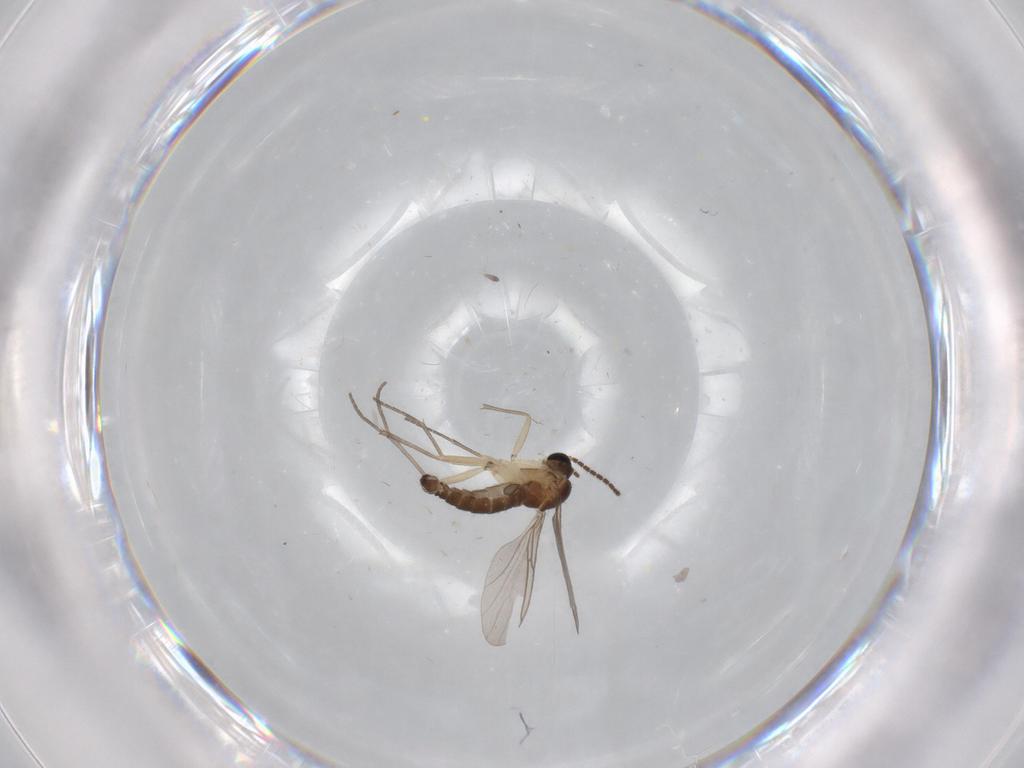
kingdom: Animalia
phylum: Arthropoda
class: Insecta
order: Diptera
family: Sciaridae
